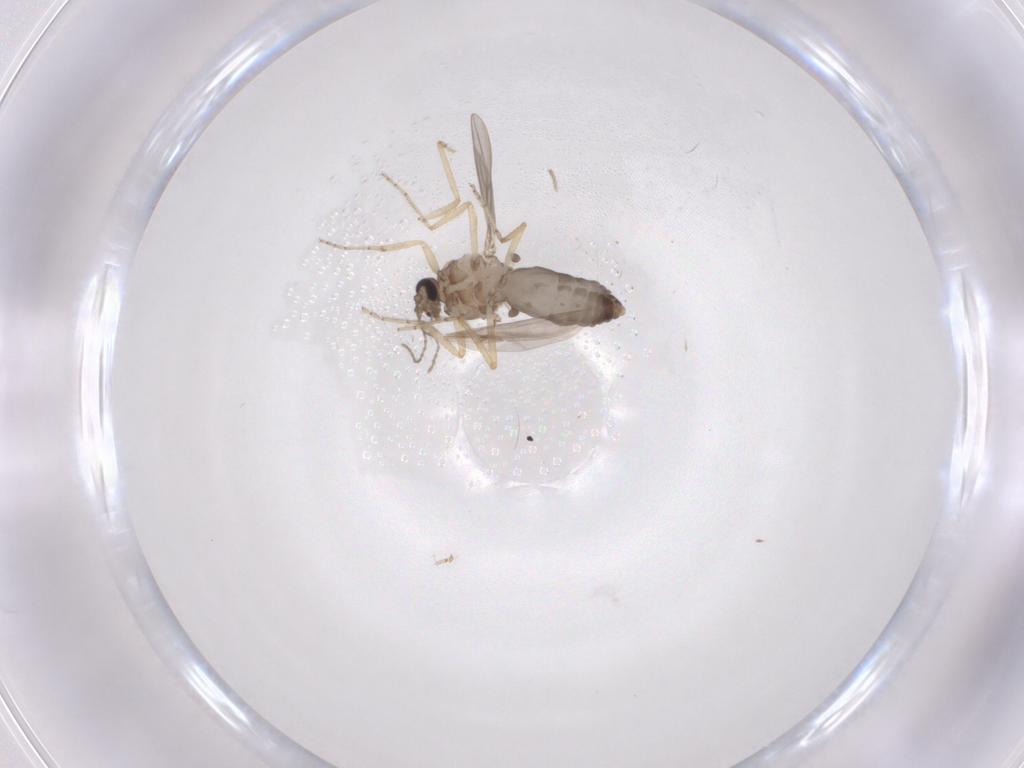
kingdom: Animalia
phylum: Arthropoda
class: Insecta
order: Diptera
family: Ceratopogonidae
